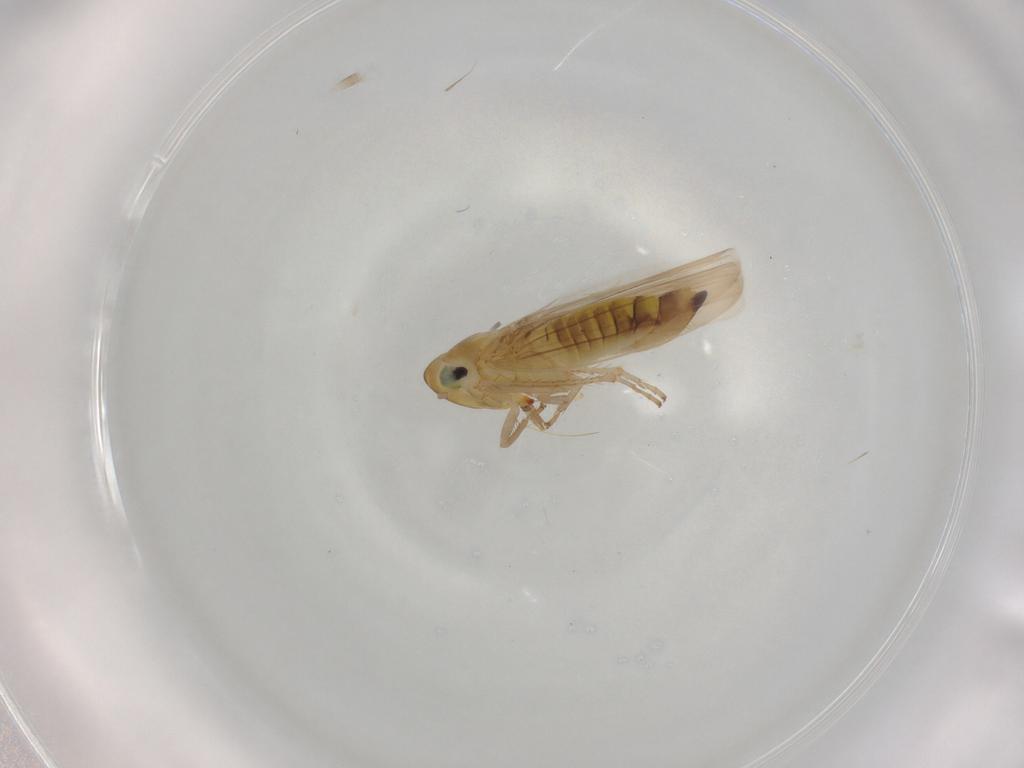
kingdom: Animalia
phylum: Arthropoda
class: Insecta
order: Hemiptera
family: Cicadellidae
